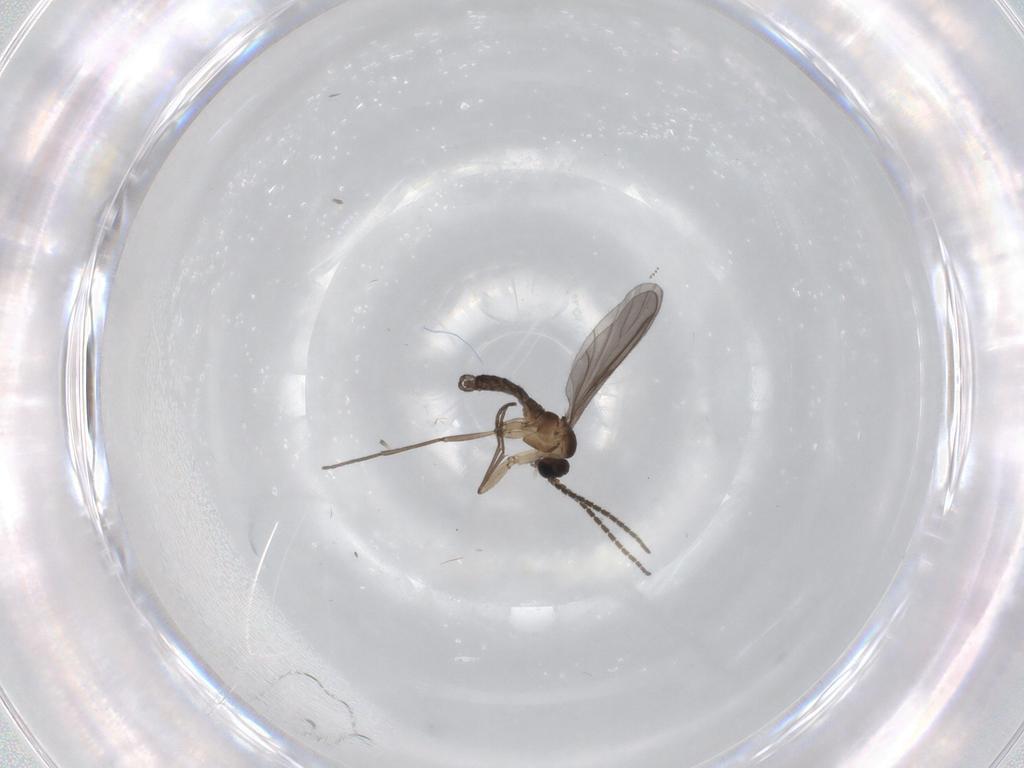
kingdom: Animalia
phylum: Arthropoda
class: Insecta
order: Diptera
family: Sciaridae
